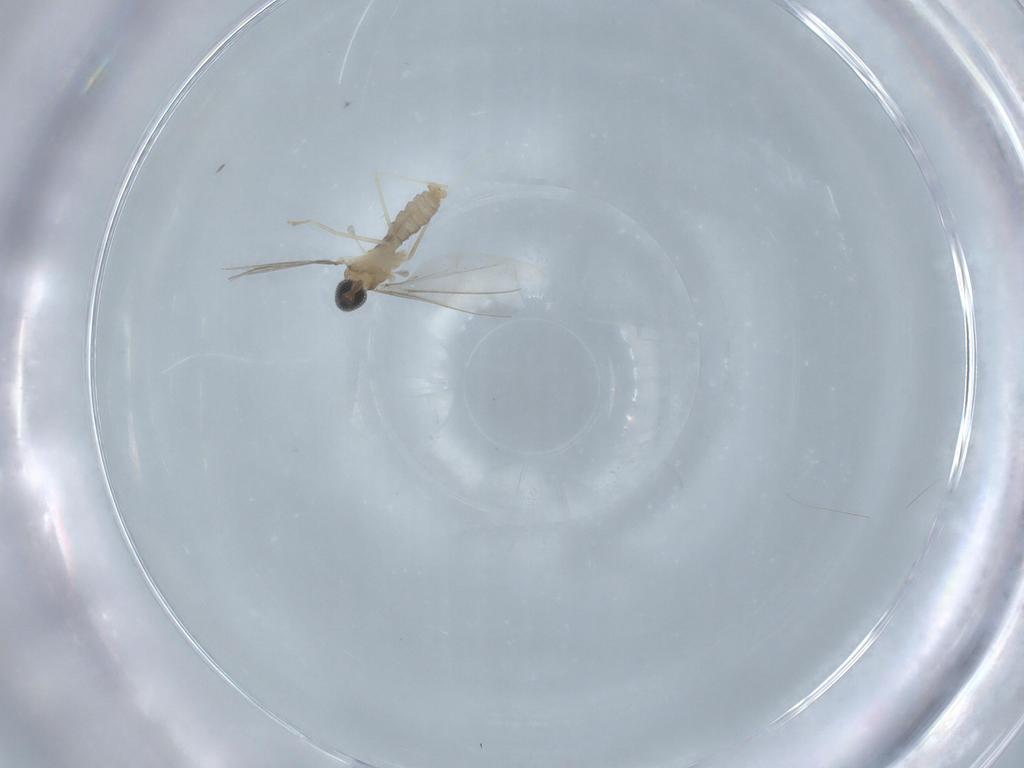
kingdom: Animalia
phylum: Arthropoda
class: Insecta
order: Diptera
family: Cecidomyiidae
